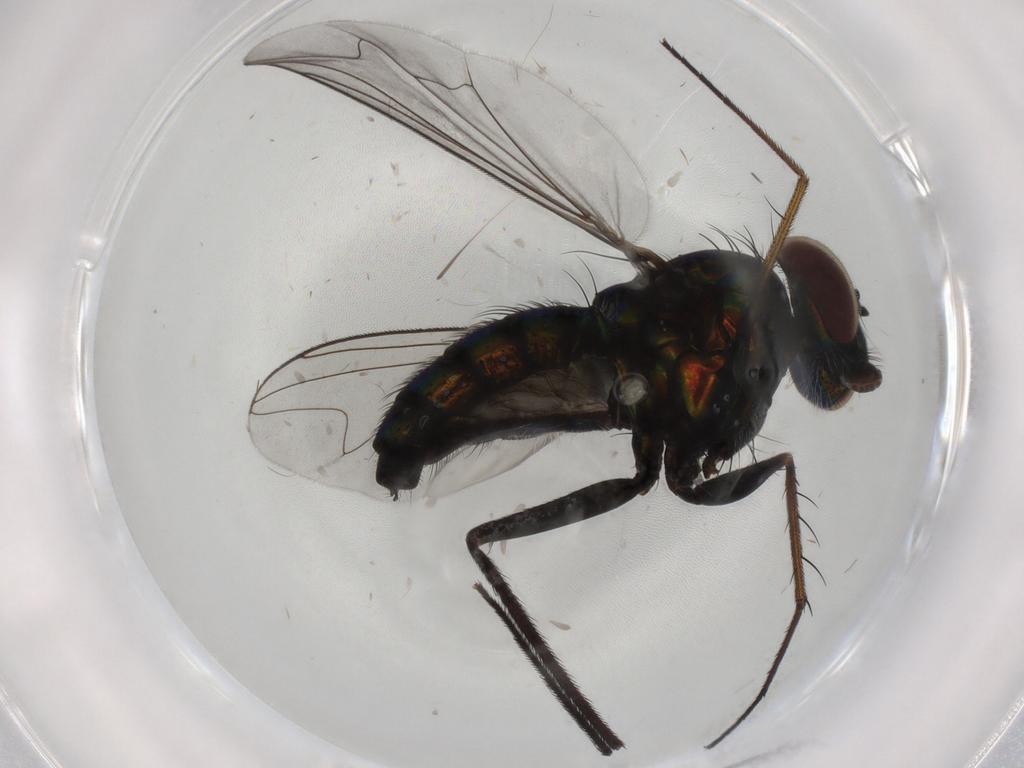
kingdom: Animalia
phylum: Arthropoda
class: Insecta
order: Diptera
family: Dolichopodidae
